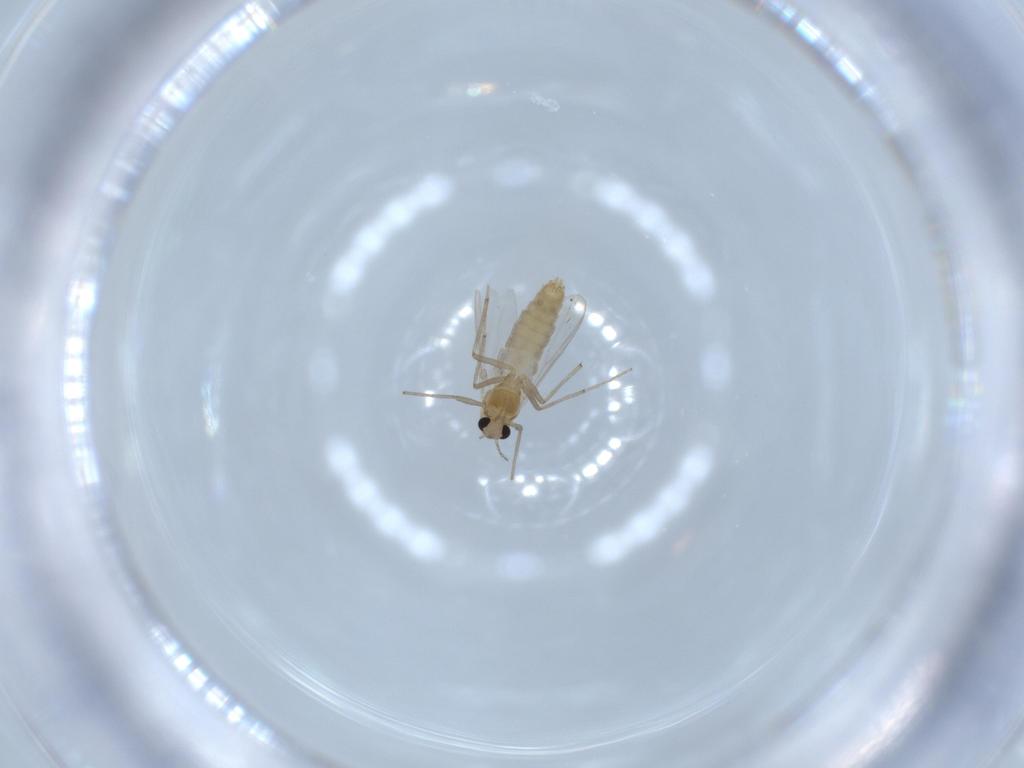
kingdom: Animalia
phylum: Arthropoda
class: Insecta
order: Diptera
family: Chironomidae
